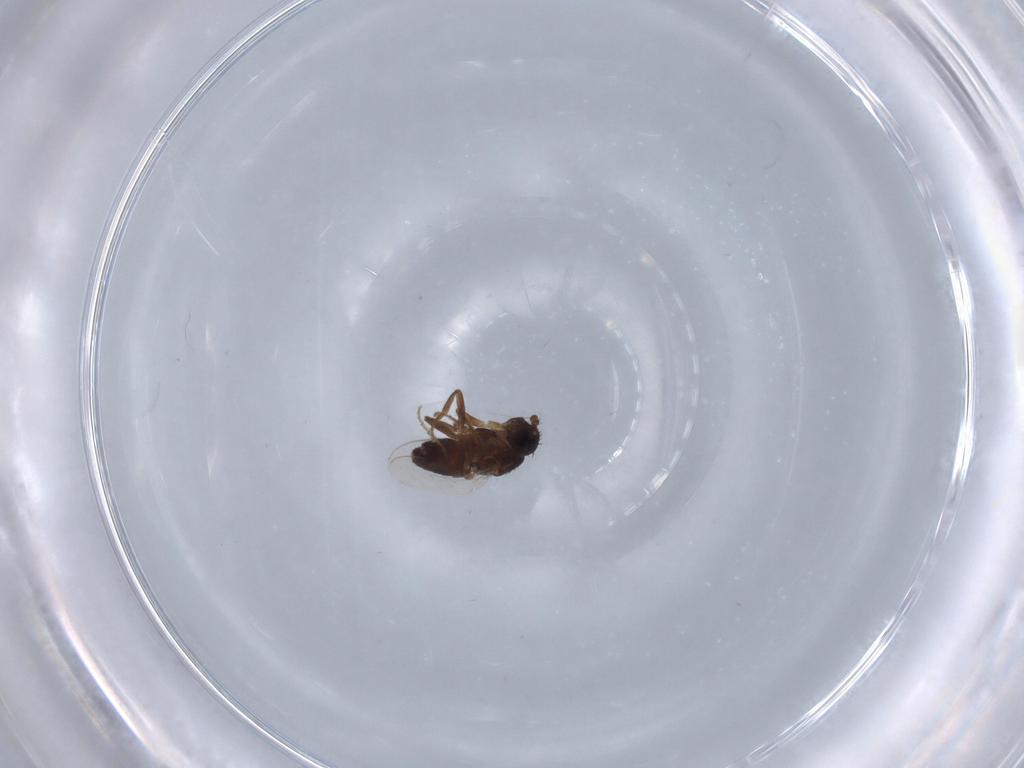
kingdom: Animalia
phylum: Arthropoda
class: Insecta
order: Diptera
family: Sphaeroceridae
